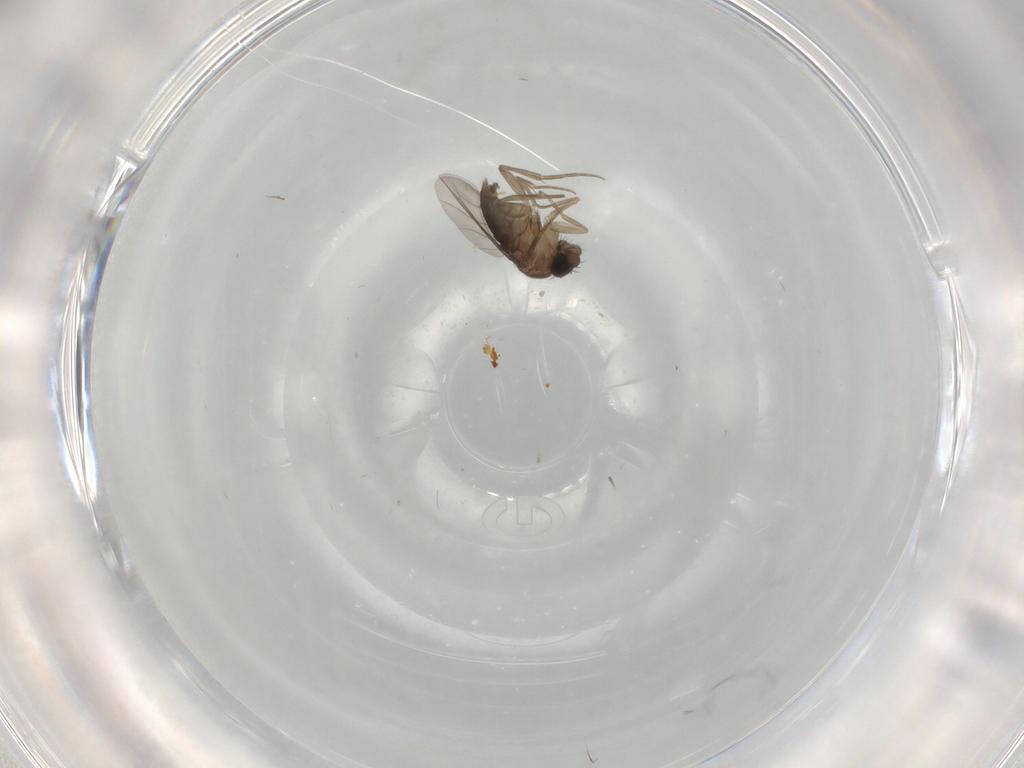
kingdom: Animalia
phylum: Arthropoda
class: Insecta
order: Diptera
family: Phoridae
